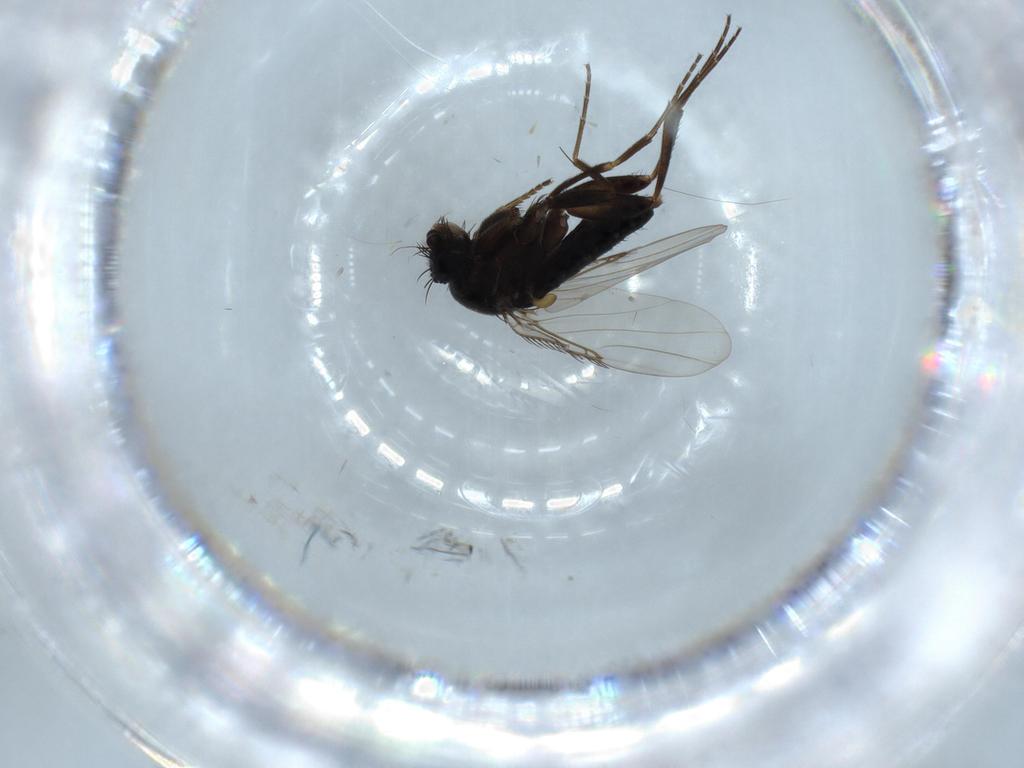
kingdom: Animalia
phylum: Arthropoda
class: Insecta
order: Diptera
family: Phoridae
